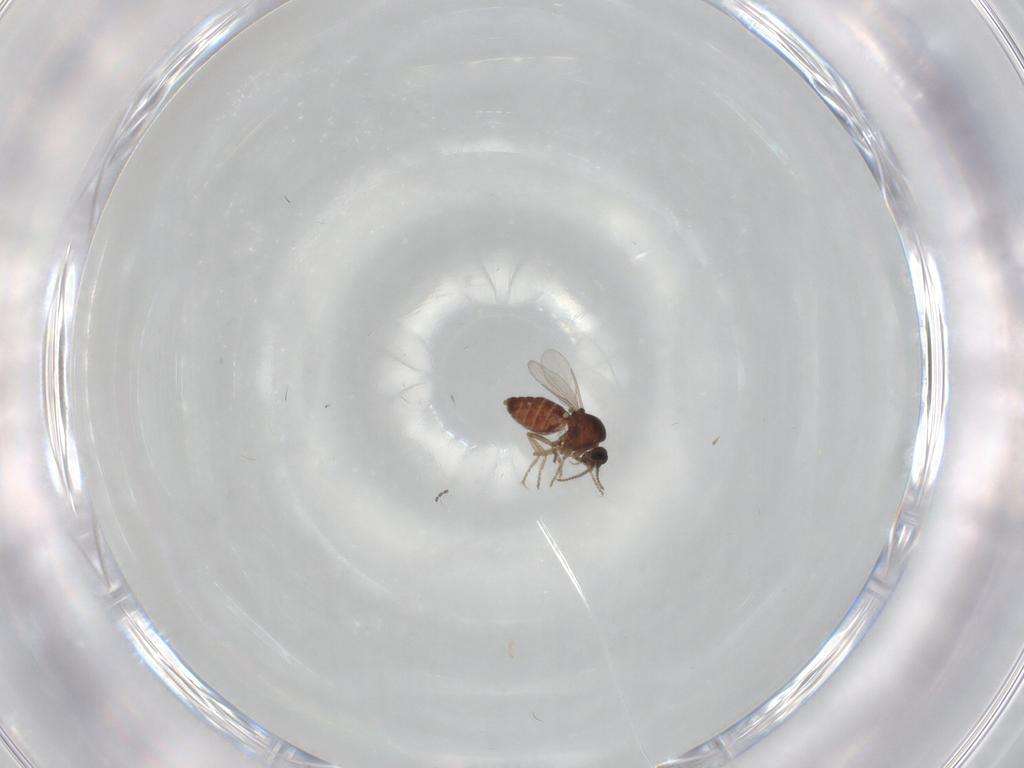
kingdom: Animalia
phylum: Arthropoda
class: Insecta
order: Diptera
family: Ceratopogonidae
